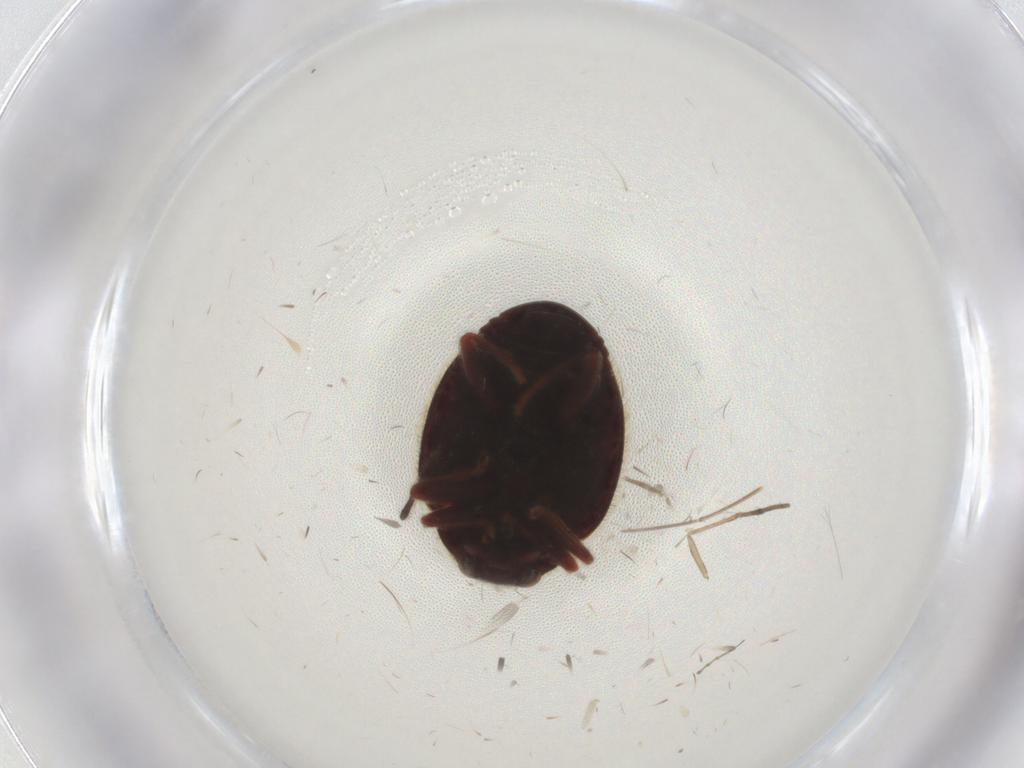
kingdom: Animalia
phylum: Arthropoda
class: Insecta
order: Coleoptera
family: Coccinellidae
